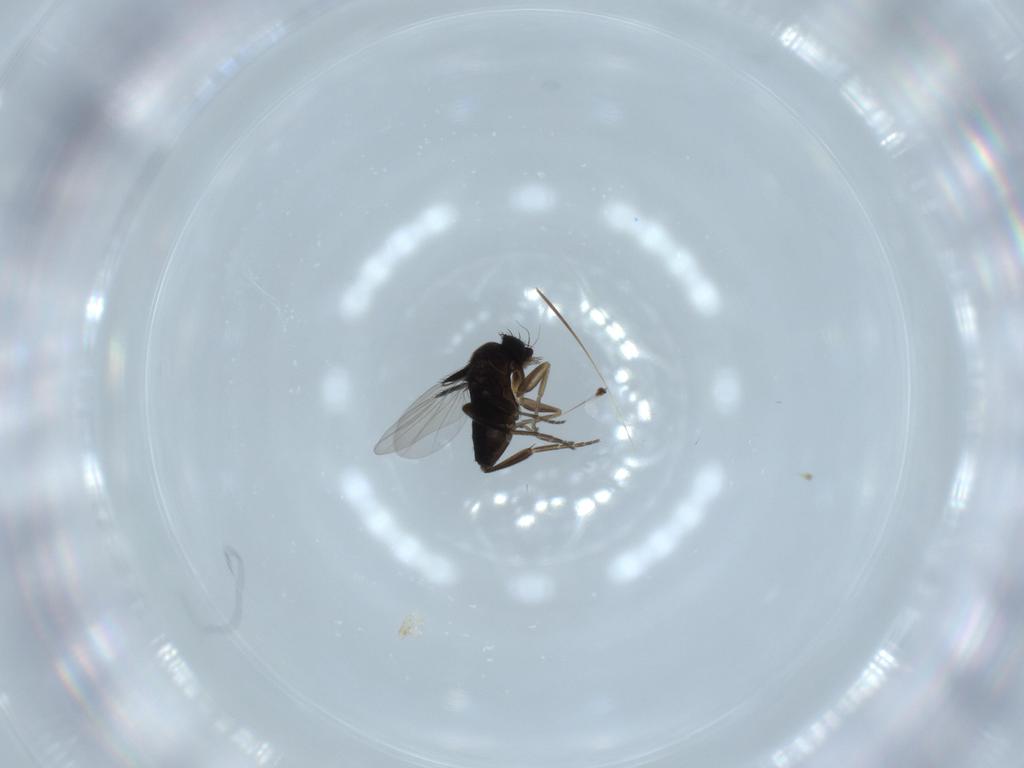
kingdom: Animalia
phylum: Arthropoda
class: Insecta
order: Diptera
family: Phoridae
